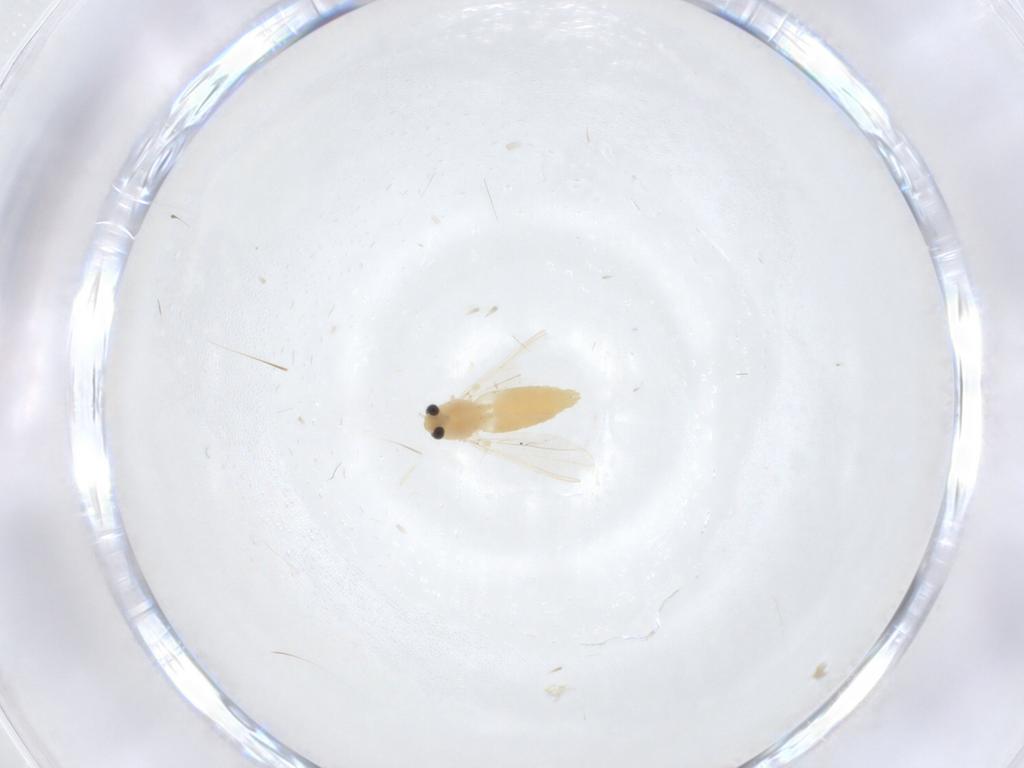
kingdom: Animalia
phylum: Arthropoda
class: Insecta
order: Diptera
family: Chironomidae
